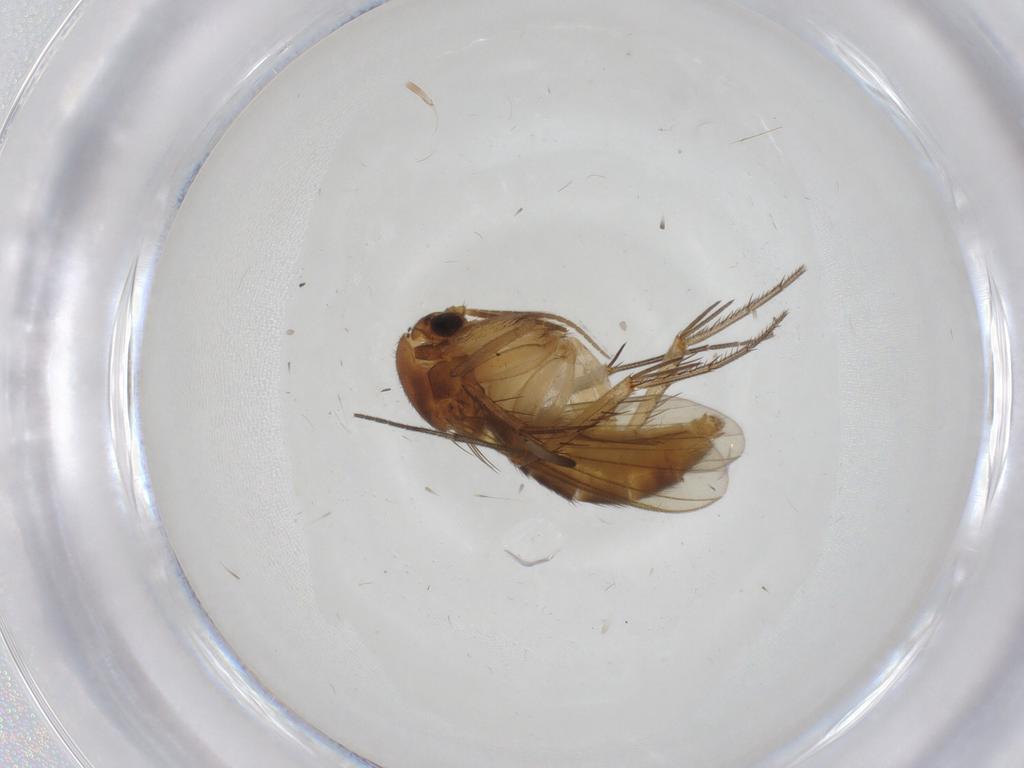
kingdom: Animalia
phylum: Arthropoda
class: Insecta
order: Diptera
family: Mycetophilidae
